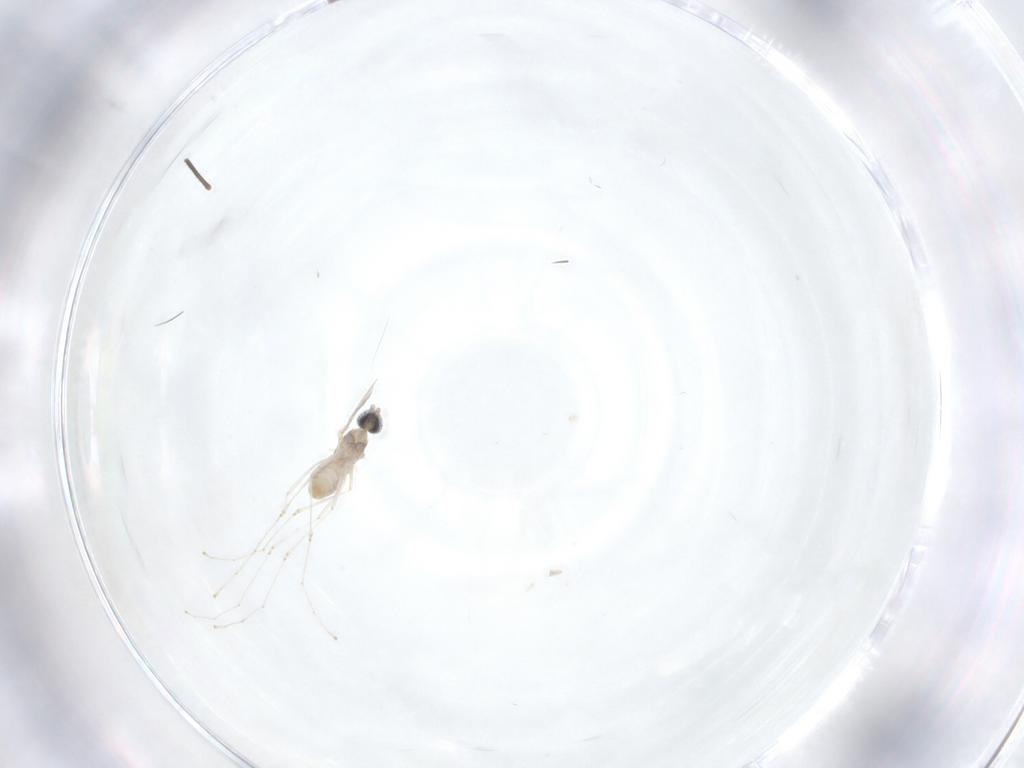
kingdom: Animalia
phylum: Arthropoda
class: Insecta
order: Diptera
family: Cecidomyiidae
